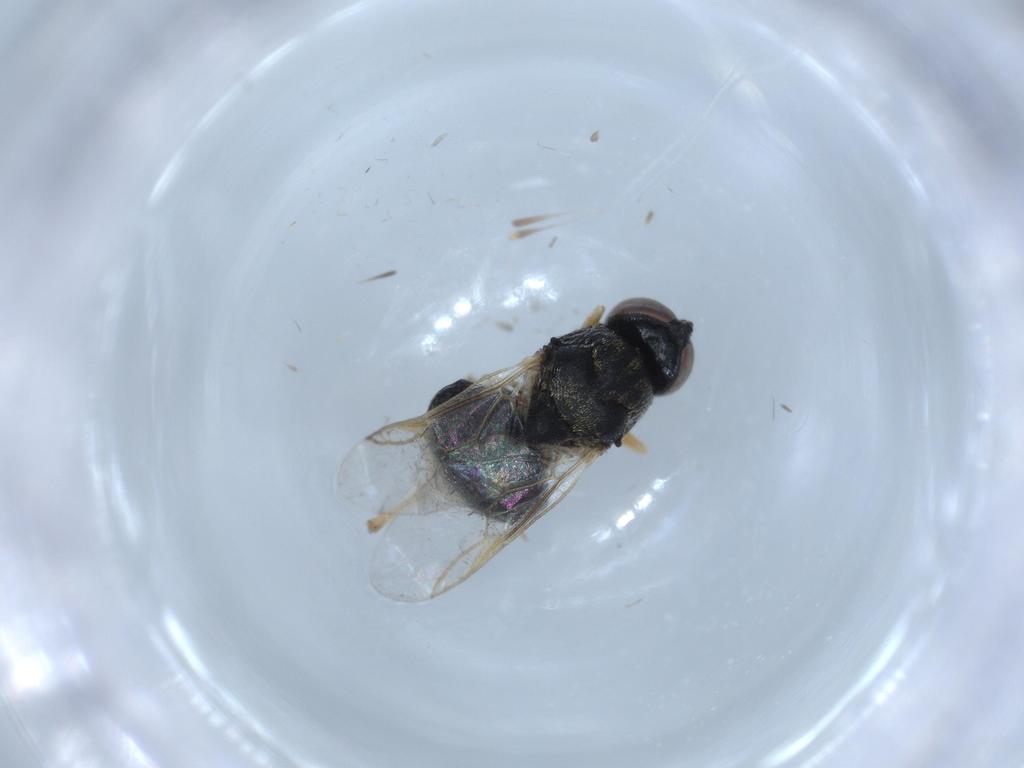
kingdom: Animalia
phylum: Arthropoda
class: Insecta
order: Diptera
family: Stratiomyidae
